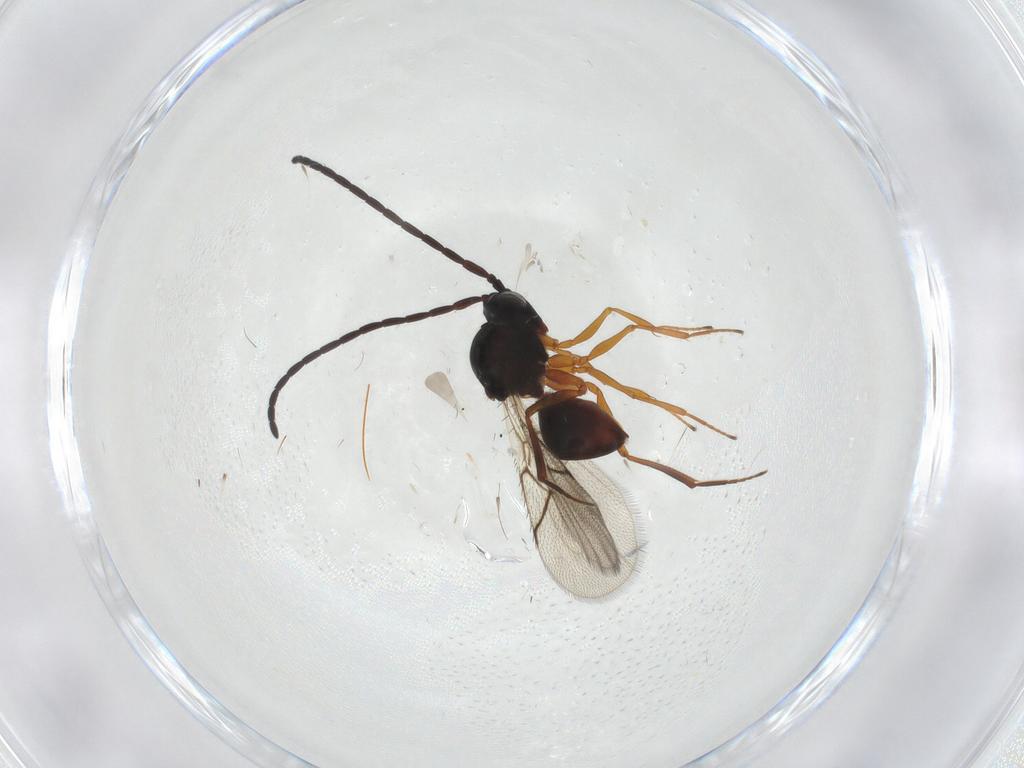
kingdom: Animalia
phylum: Arthropoda
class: Insecta
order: Hymenoptera
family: Figitidae
